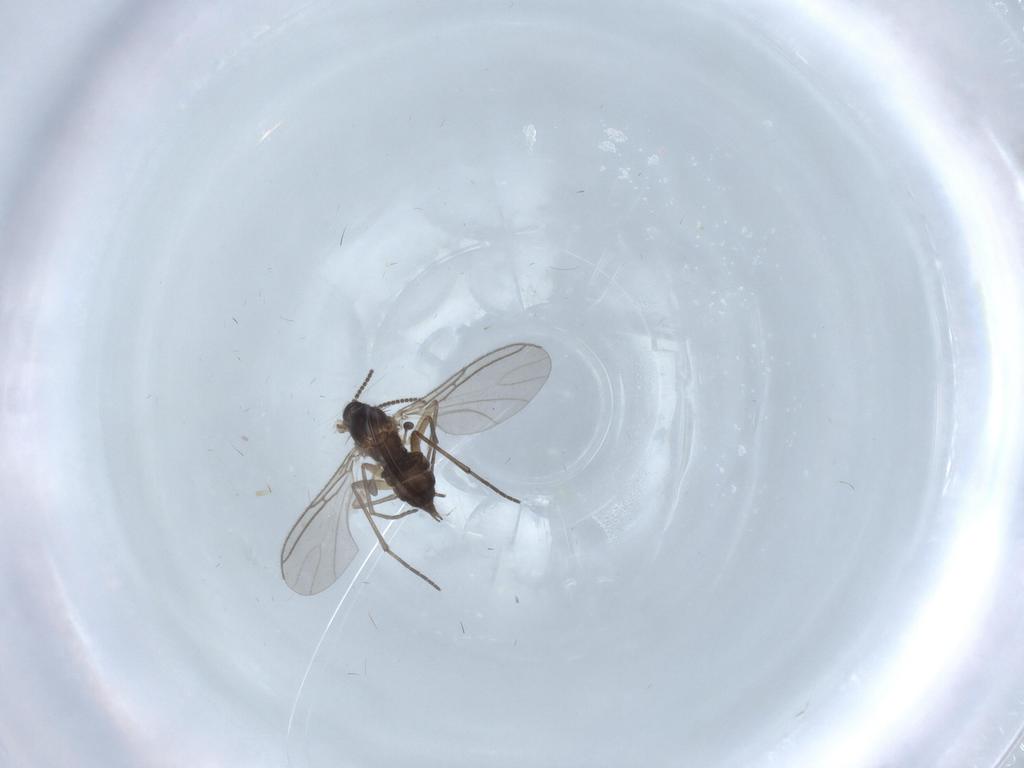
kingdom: Animalia
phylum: Arthropoda
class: Insecta
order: Diptera
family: Sciaridae
